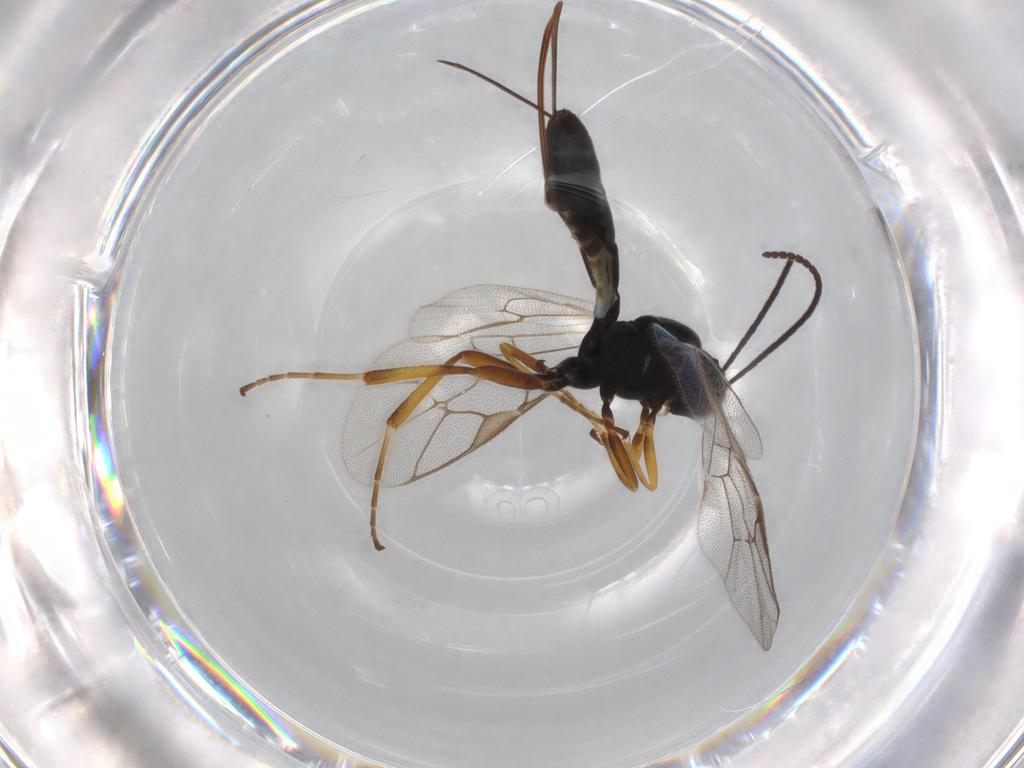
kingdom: Animalia
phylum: Arthropoda
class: Insecta
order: Hymenoptera
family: Ichneumonidae
